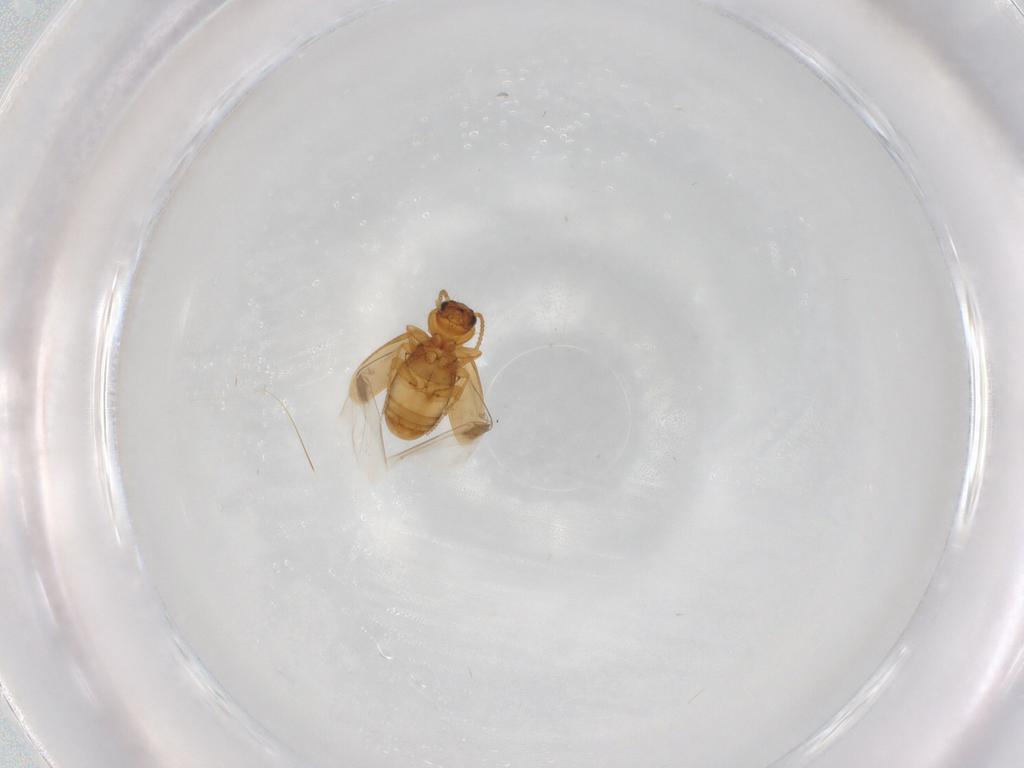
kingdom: Animalia
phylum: Arthropoda
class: Insecta
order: Coleoptera
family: Carabidae
